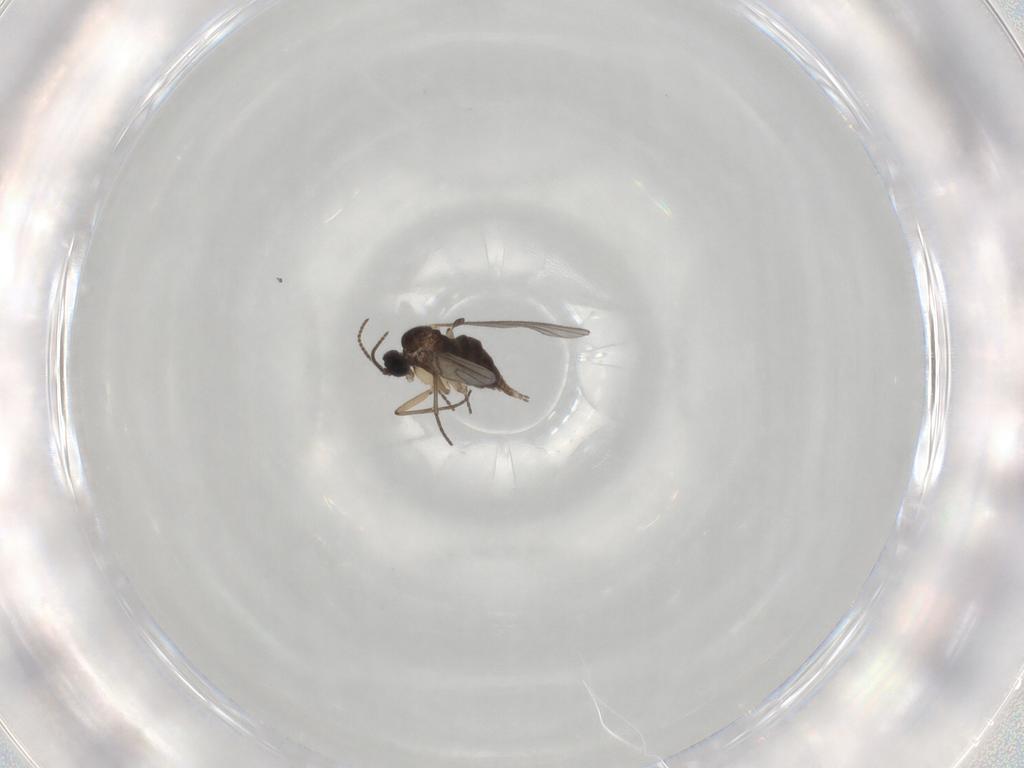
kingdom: Animalia
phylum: Arthropoda
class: Insecta
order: Diptera
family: Sciaridae
